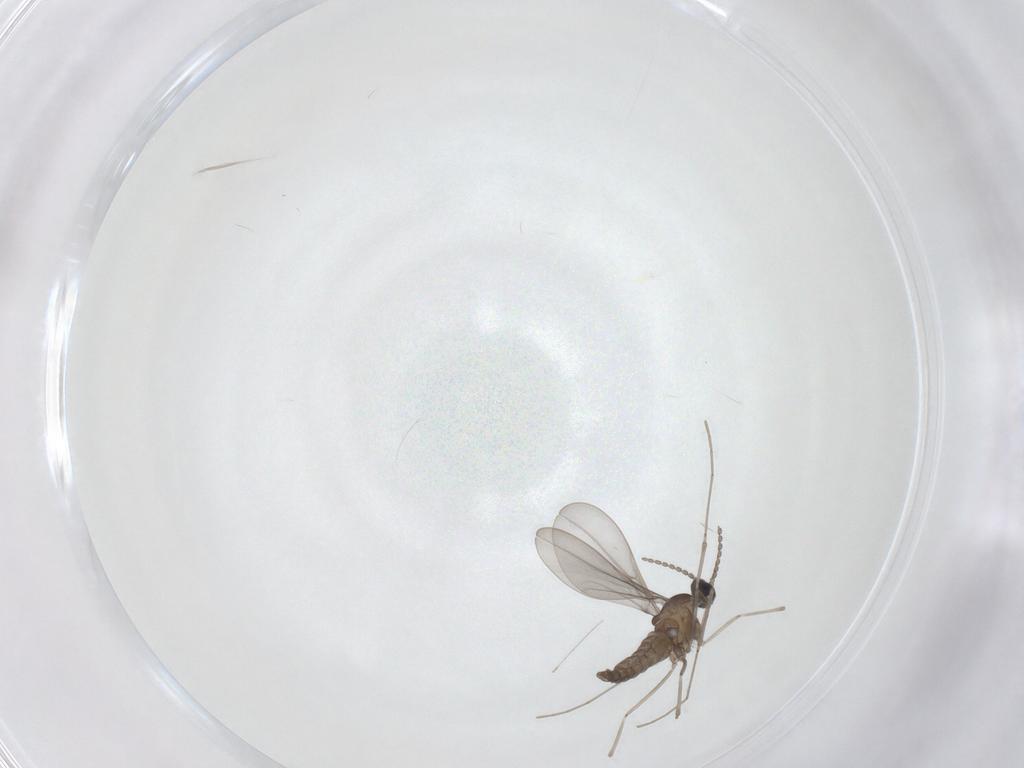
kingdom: Animalia
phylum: Arthropoda
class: Insecta
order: Diptera
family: Cecidomyiidae
